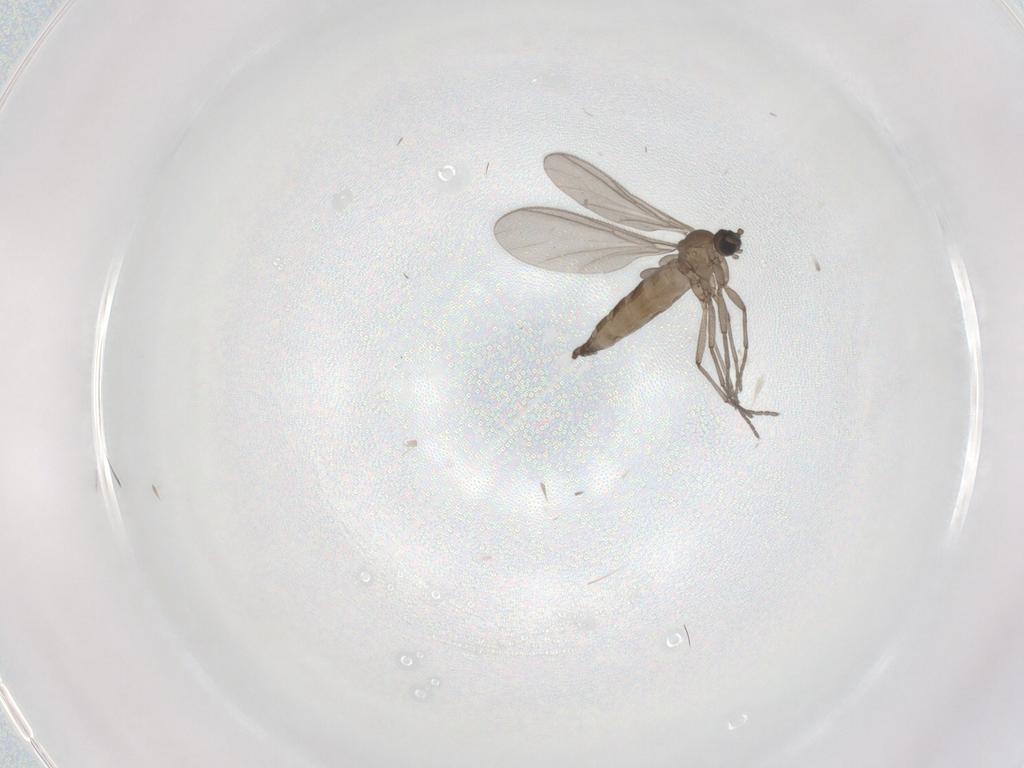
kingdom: Animalia
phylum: Arthropoda
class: Insecta
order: Diptera
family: Sciaridae
